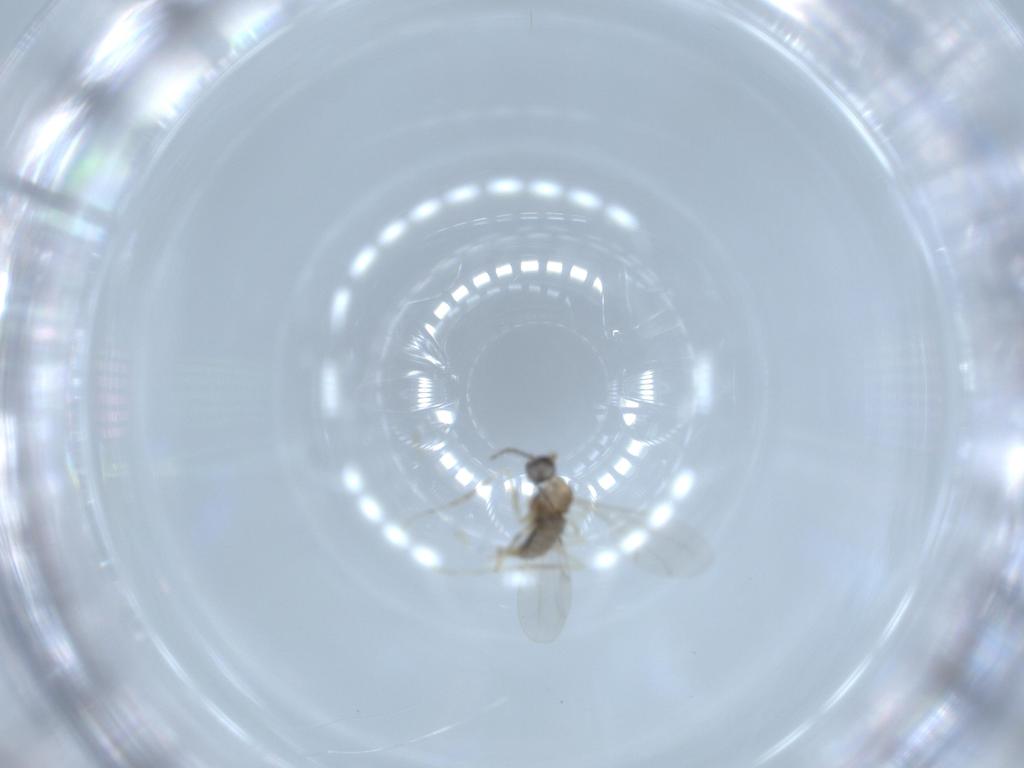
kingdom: Animalia
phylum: Arthropoda
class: Insecta
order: Diptera
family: Cecidomyiidae
